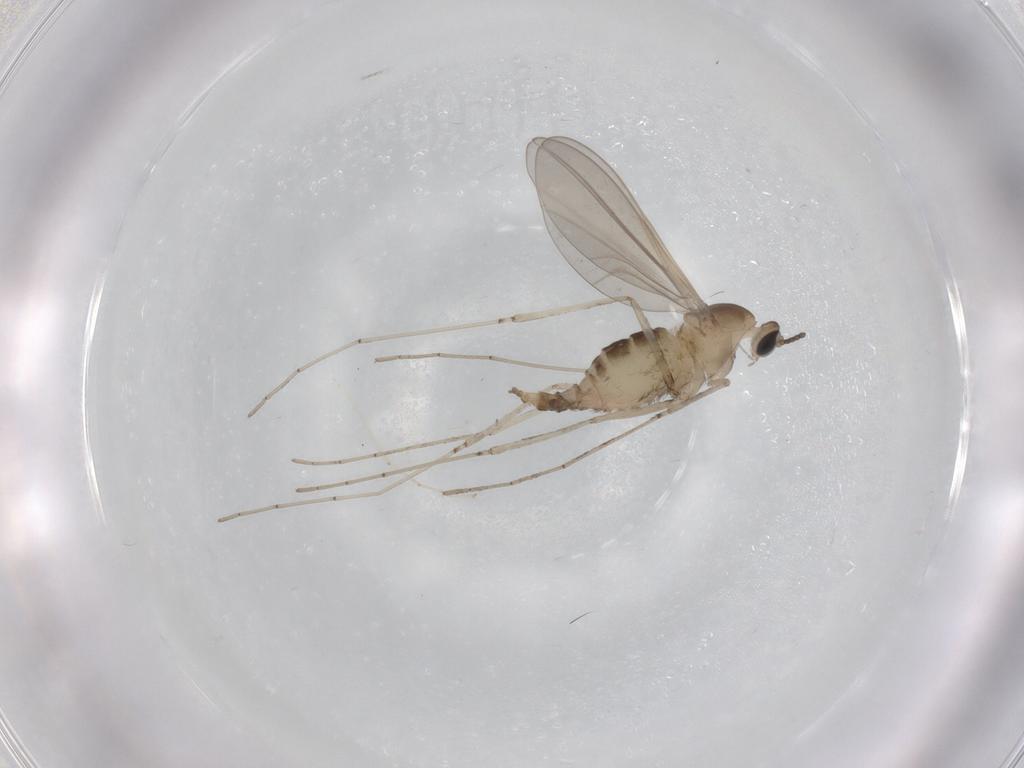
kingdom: Animalia
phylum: Arthropoda
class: Insecta
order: Diptera
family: Cecidomyiidae
